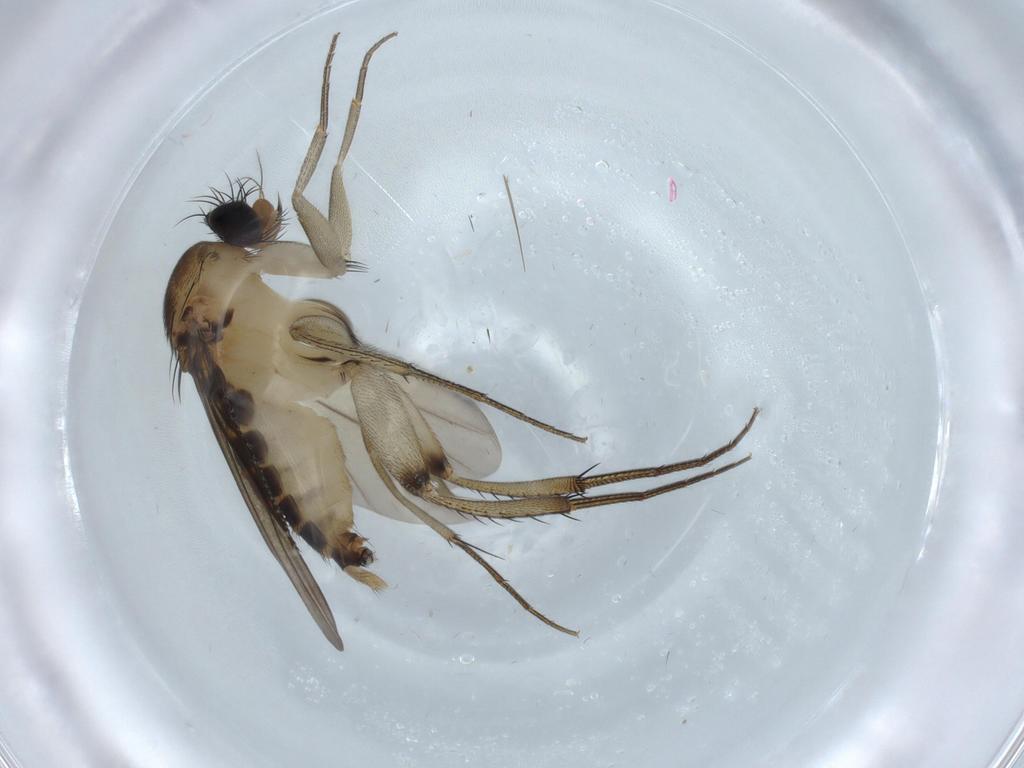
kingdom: Animalia
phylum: Arthropoda
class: Insecta
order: Diptera
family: Phoridae
